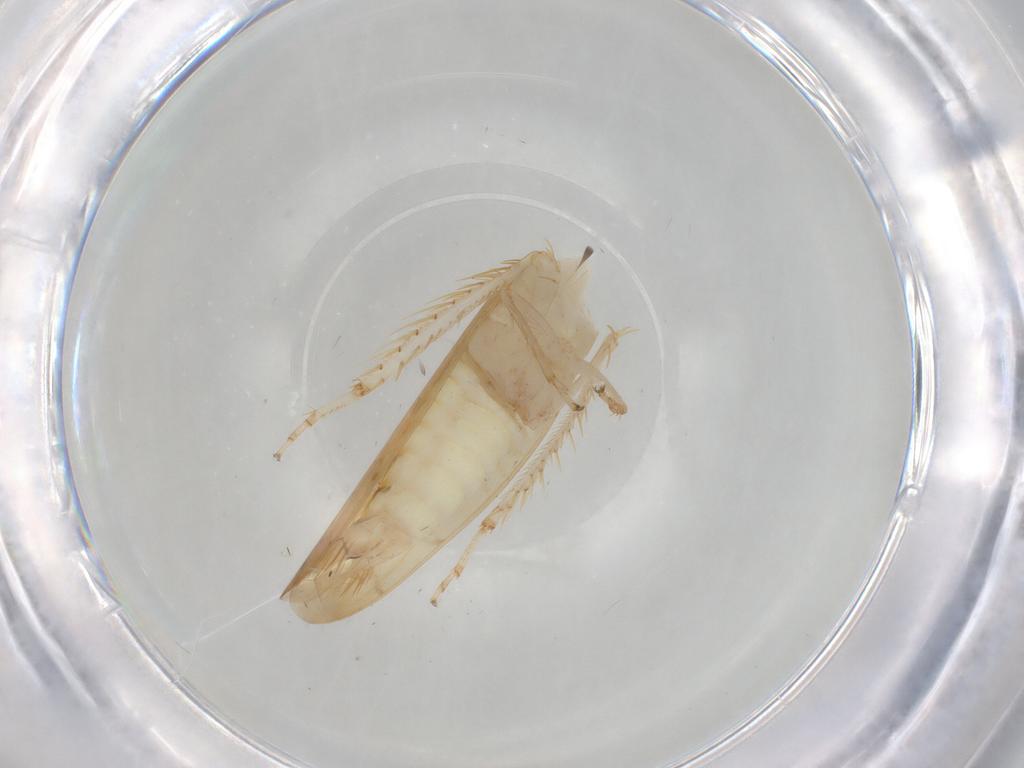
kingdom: Animalia
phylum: Arthropoda
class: Insecta
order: Hemiptera
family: Cicadellidae
